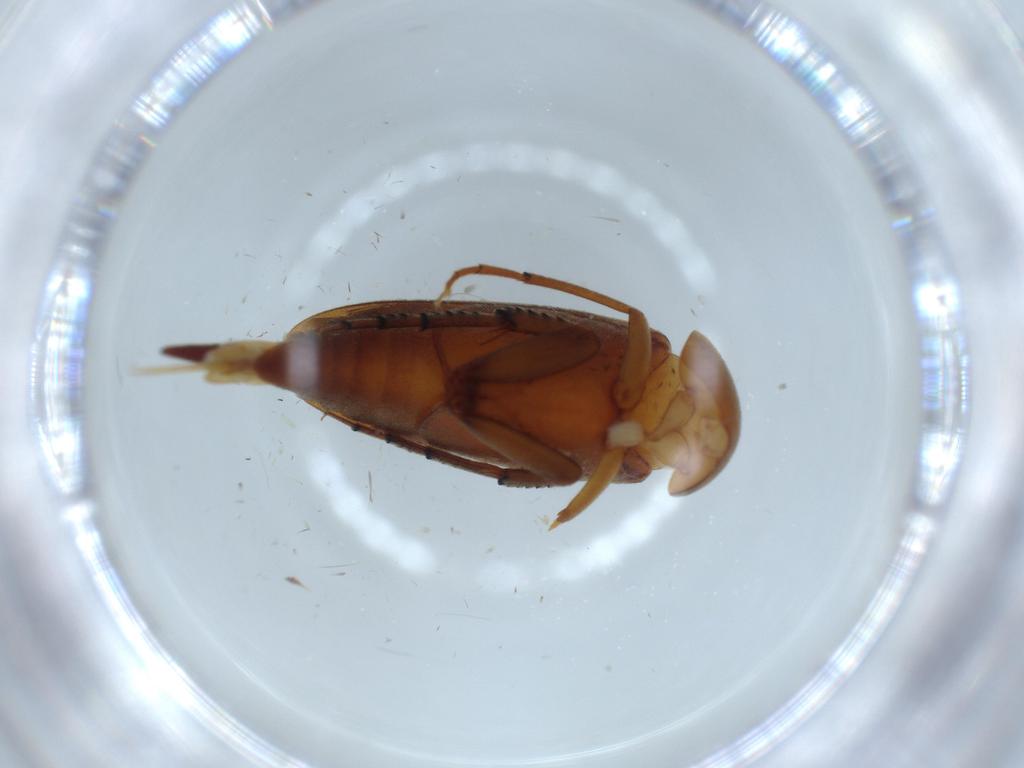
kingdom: Animalia
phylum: Arthropoda
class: Insecta
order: Coleoptera
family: Mordellidae
